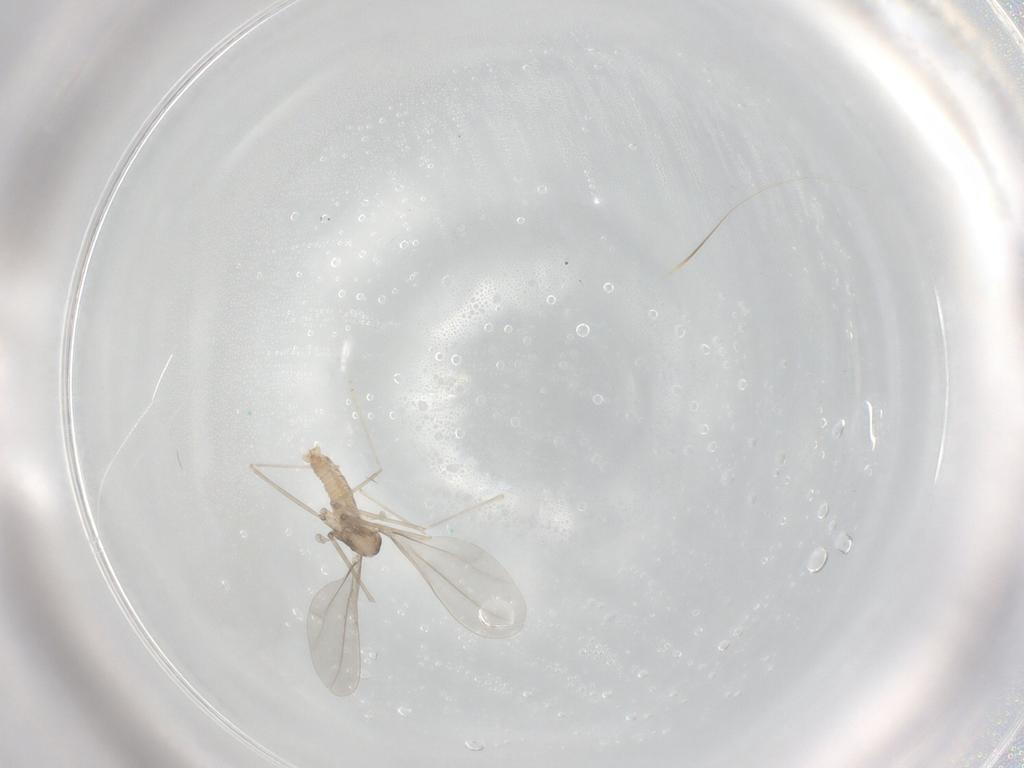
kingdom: Animalia
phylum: Arthropoda
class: Insecta
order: Diptera
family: Cecidomyiidae
